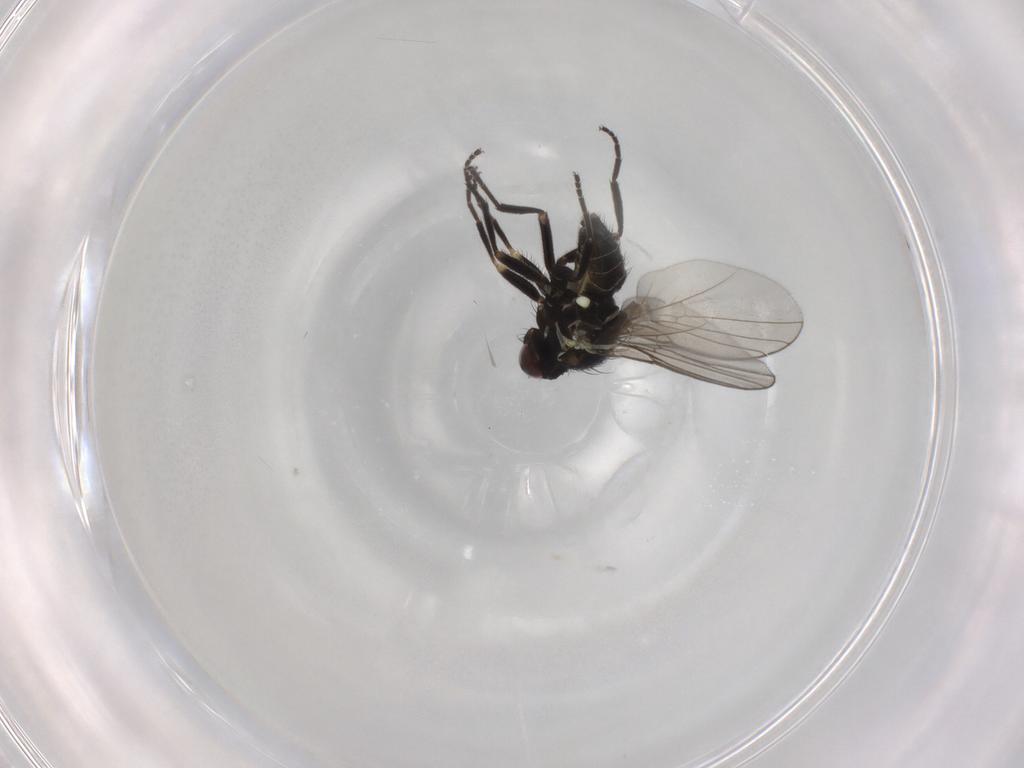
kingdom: Animalia
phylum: Arthropoda
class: Insecta
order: Diptera
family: Agromyzidae
